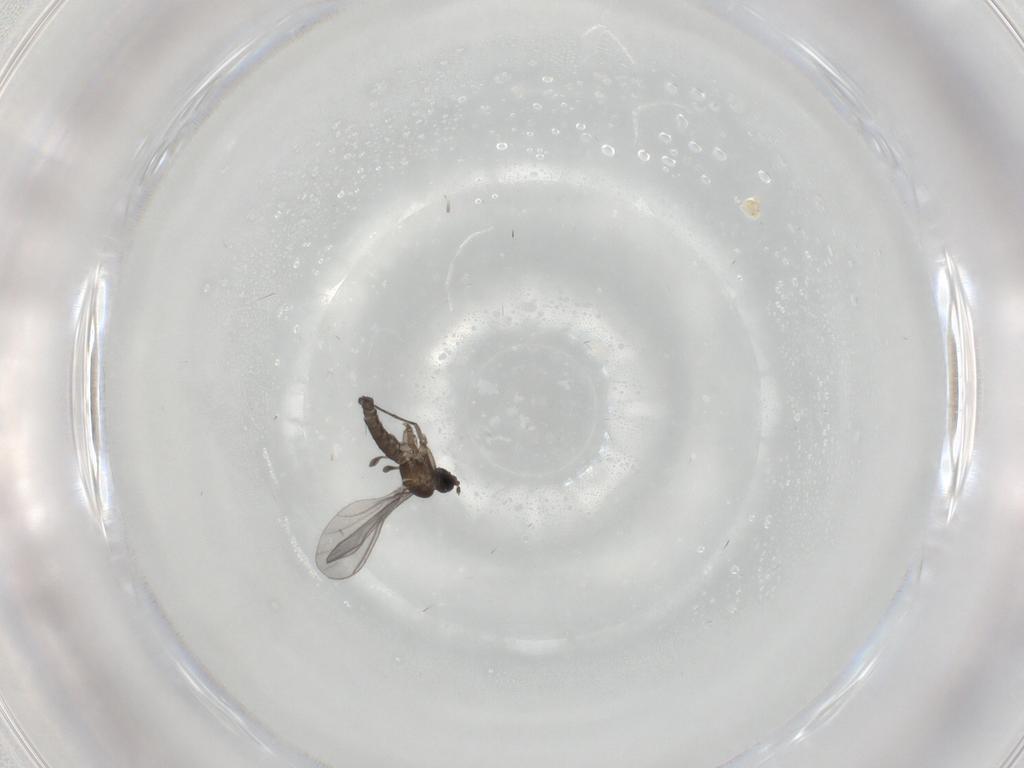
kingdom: Animalia
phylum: Arthropoda
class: Insecta
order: Diptera
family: Sciaridae
